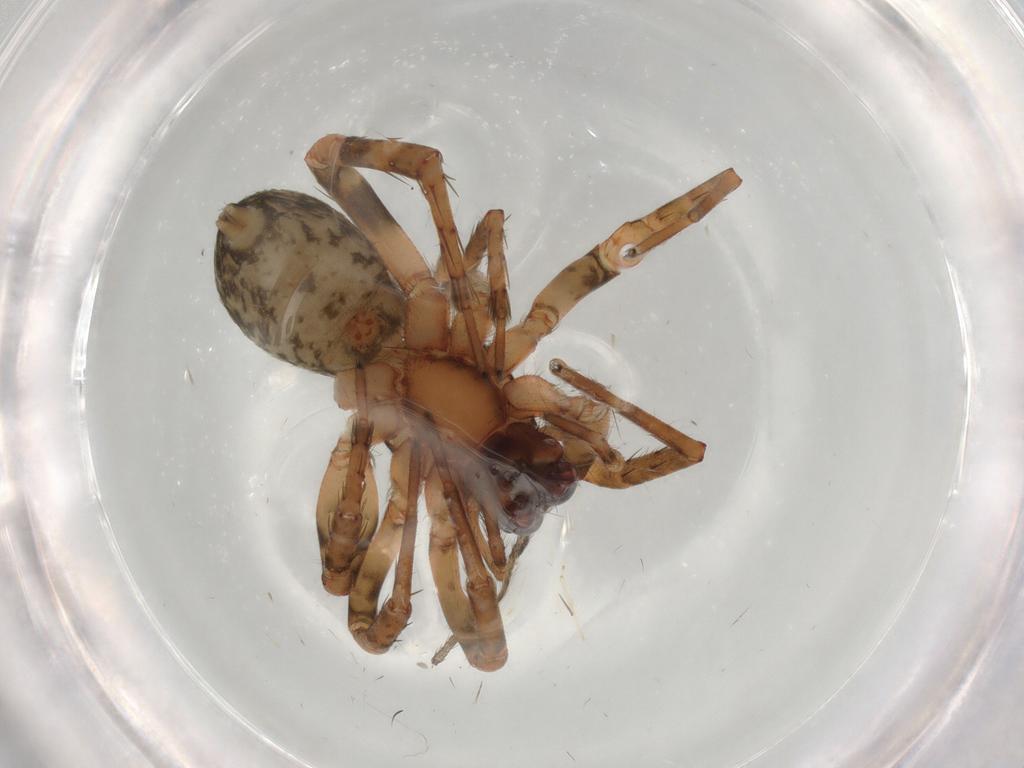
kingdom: Animalia
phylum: Arthropoda
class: Arachnida
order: Araneae
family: Anyphaenidae
